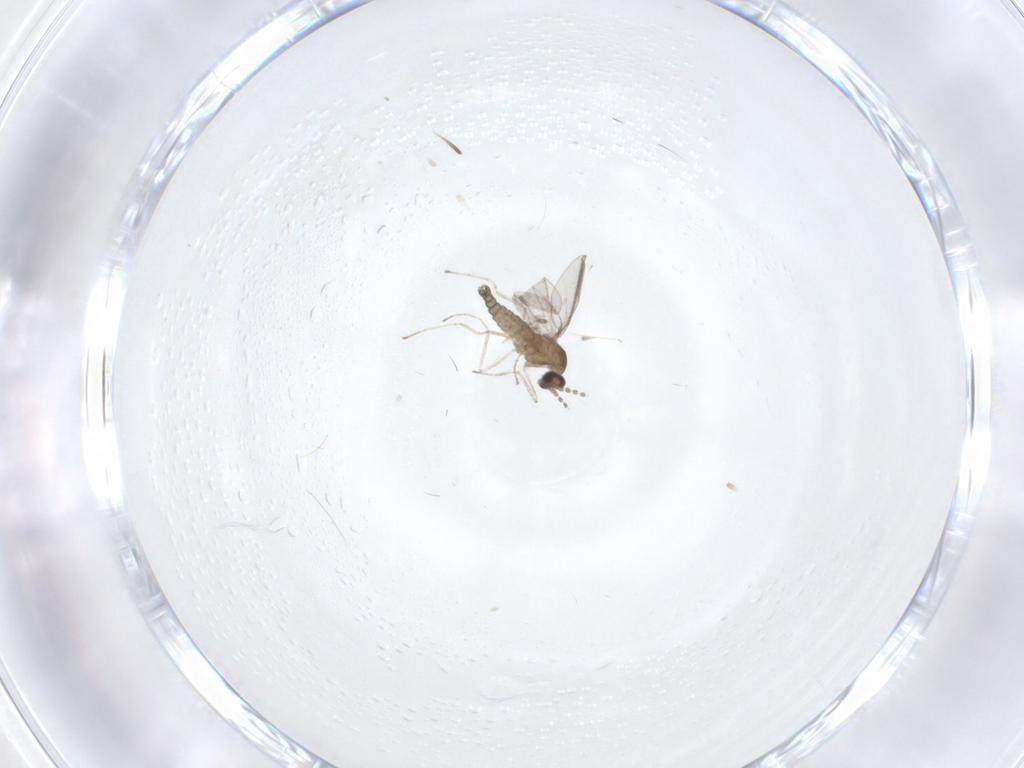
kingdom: Animalia
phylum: Arthropoda
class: Insecta
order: Diptera
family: Cecidomyiidae
